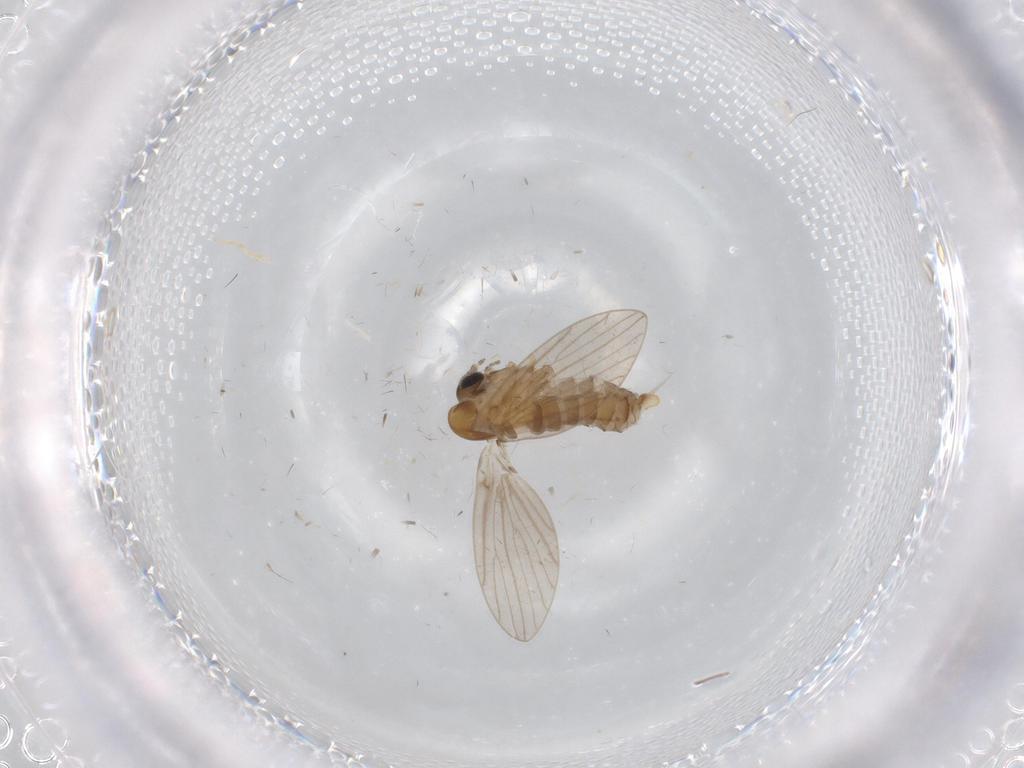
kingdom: Animalia
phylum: Arthropoda
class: Insecta
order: Diptera
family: Psychodidae
